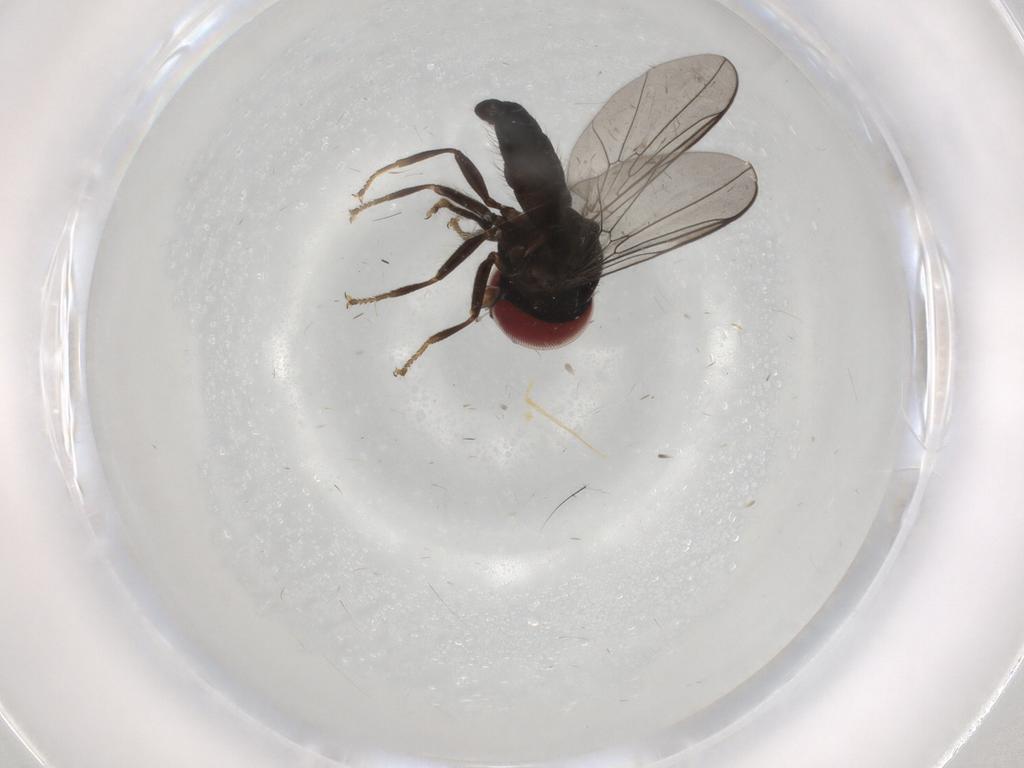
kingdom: Animalia
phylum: Arthropoda
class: Insecta
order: Diptera
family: Pipunculidae
